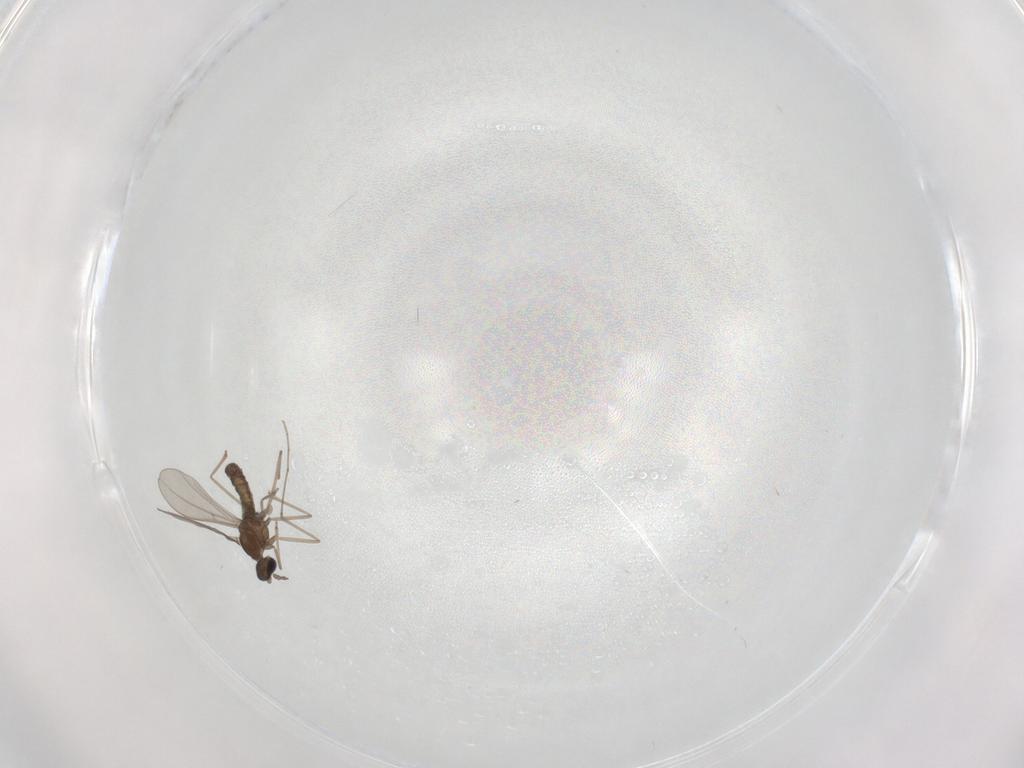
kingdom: Animalia
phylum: Arthropoda
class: Insecta
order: Diptera
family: Cecidomyiidae
